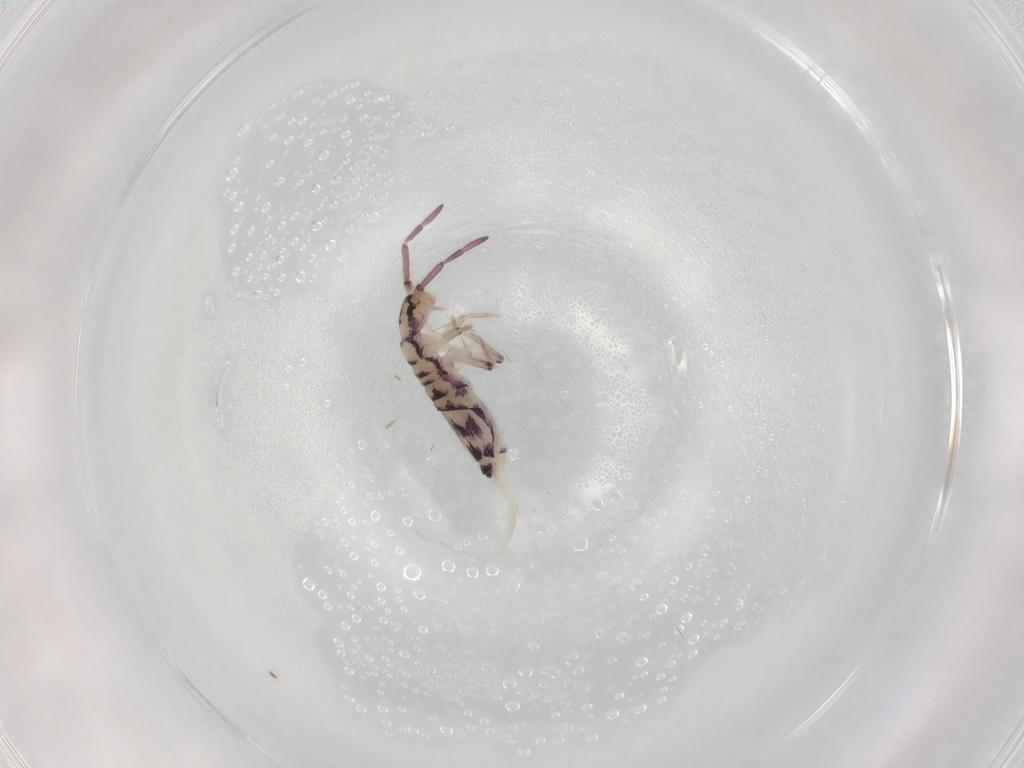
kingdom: Animalia
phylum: Arthropoda
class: Collembola
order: Entomobryomorpha
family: Entomobryidae
